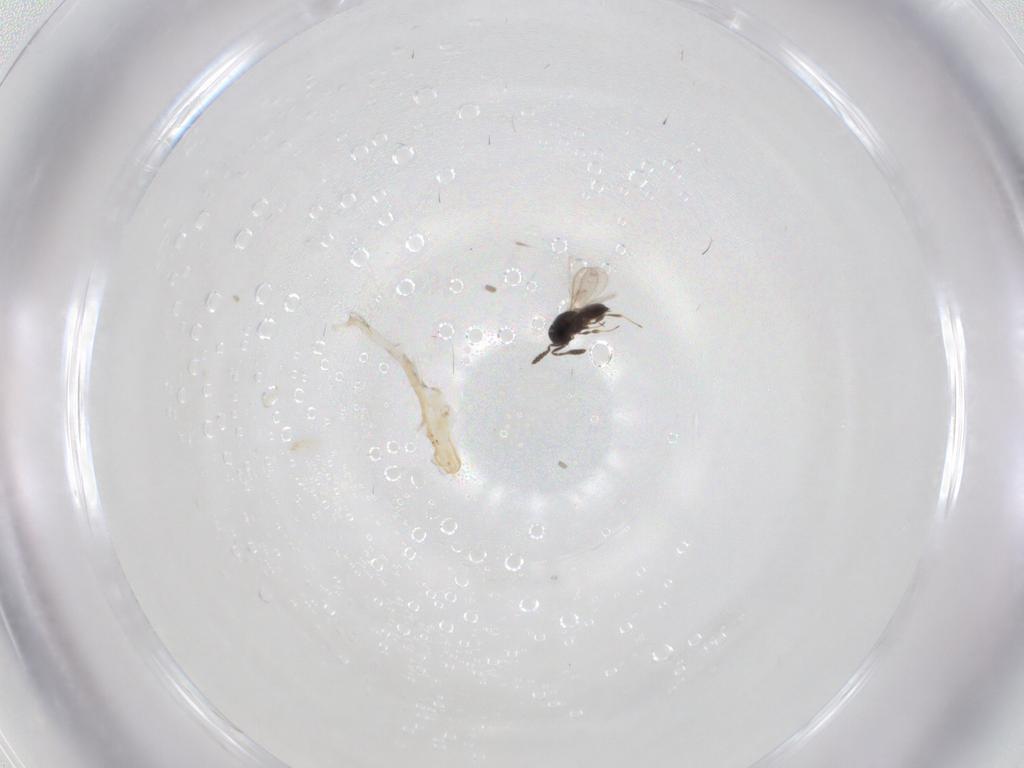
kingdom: Animalia
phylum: Arthropoda
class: Insecta
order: Hymenoptera
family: Scelionidae
